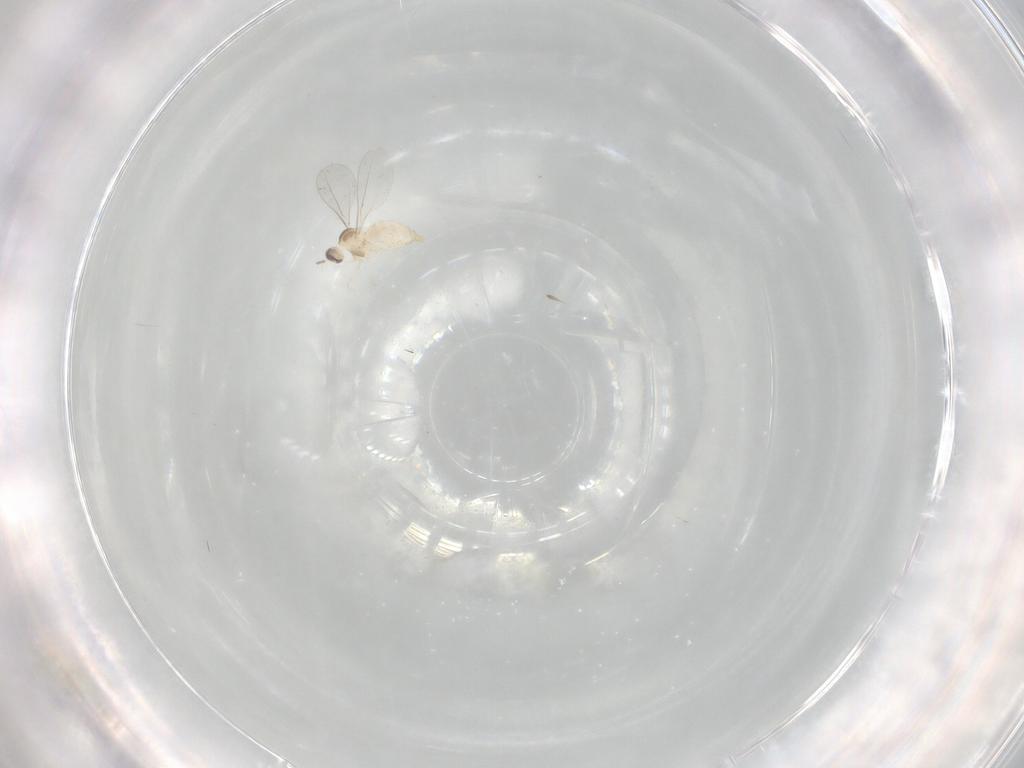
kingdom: Animalia
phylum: Arthropoda
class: Insecta
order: Diptera
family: Cecidomyiidae
